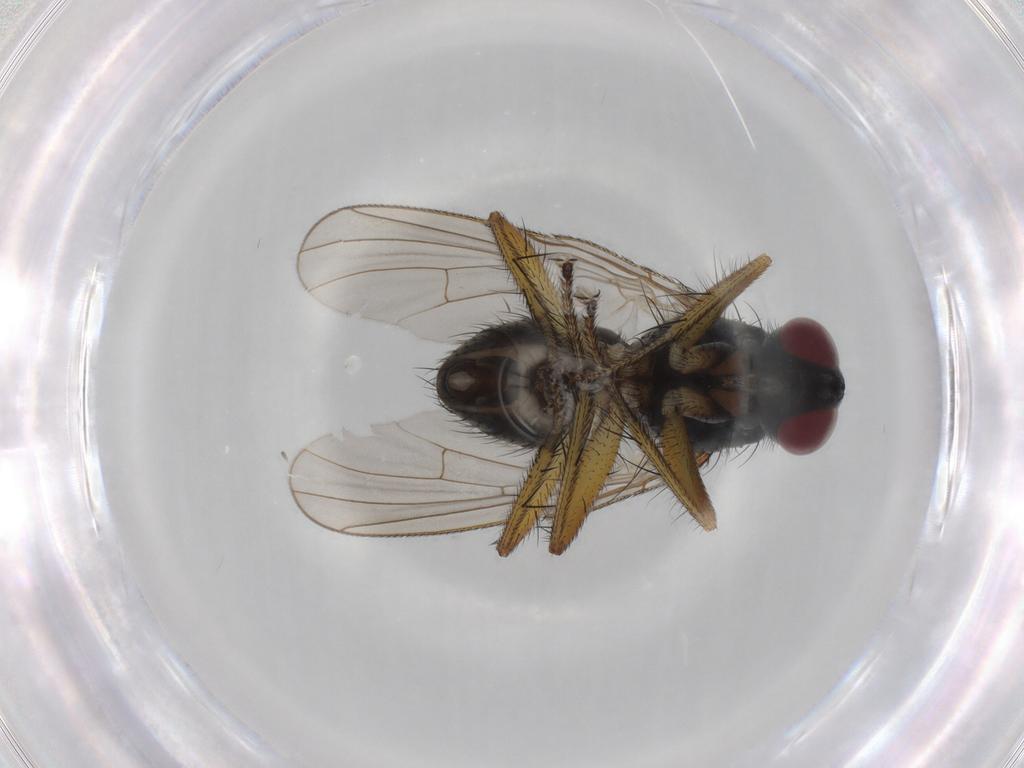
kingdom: Animalia
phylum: Arthropoda
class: Insecta
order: Diptera
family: Muscidae
